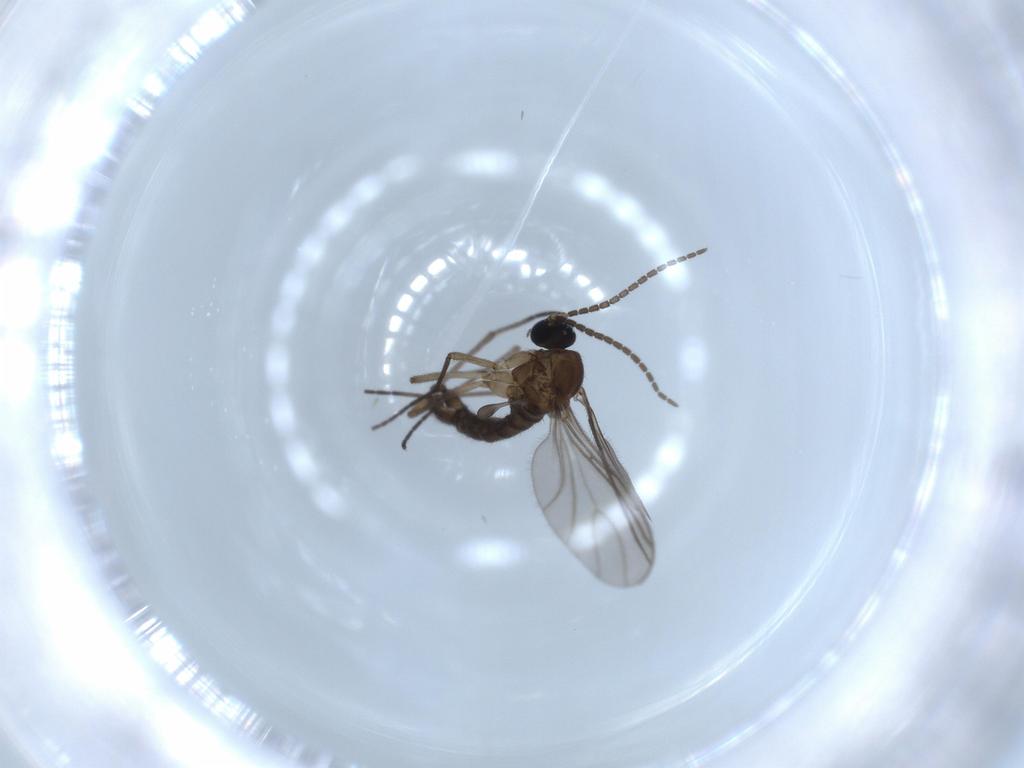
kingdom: Animalia
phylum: Arthropoda
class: Insecta
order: Diptera
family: Sciaridae
